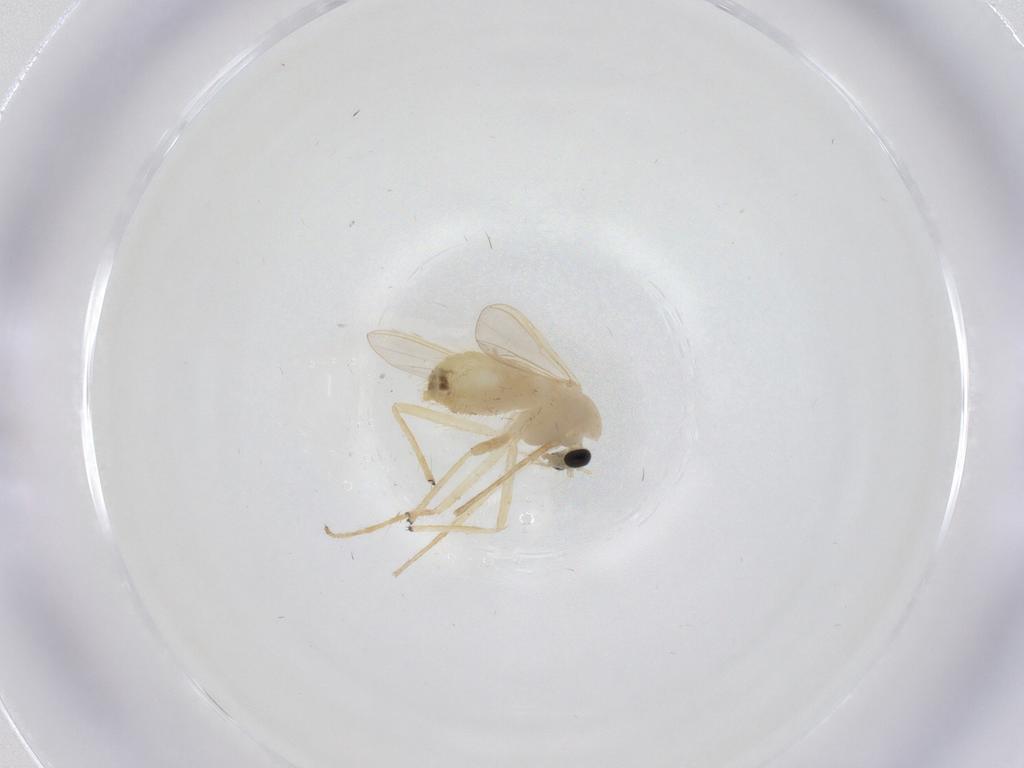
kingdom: Animalia
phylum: Arthropoda
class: Insecta
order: Diptera
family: Chironomidae
